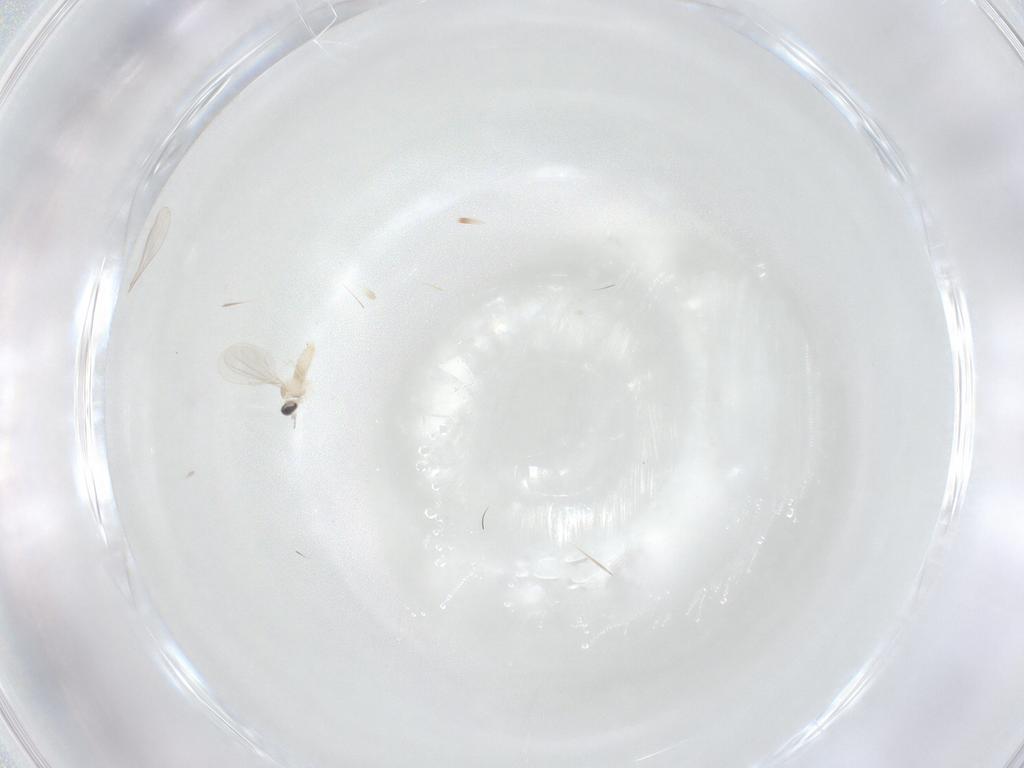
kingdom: Animalia
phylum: Arthropoda
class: Insecta
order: Diptera
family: Cecidomyiidae
